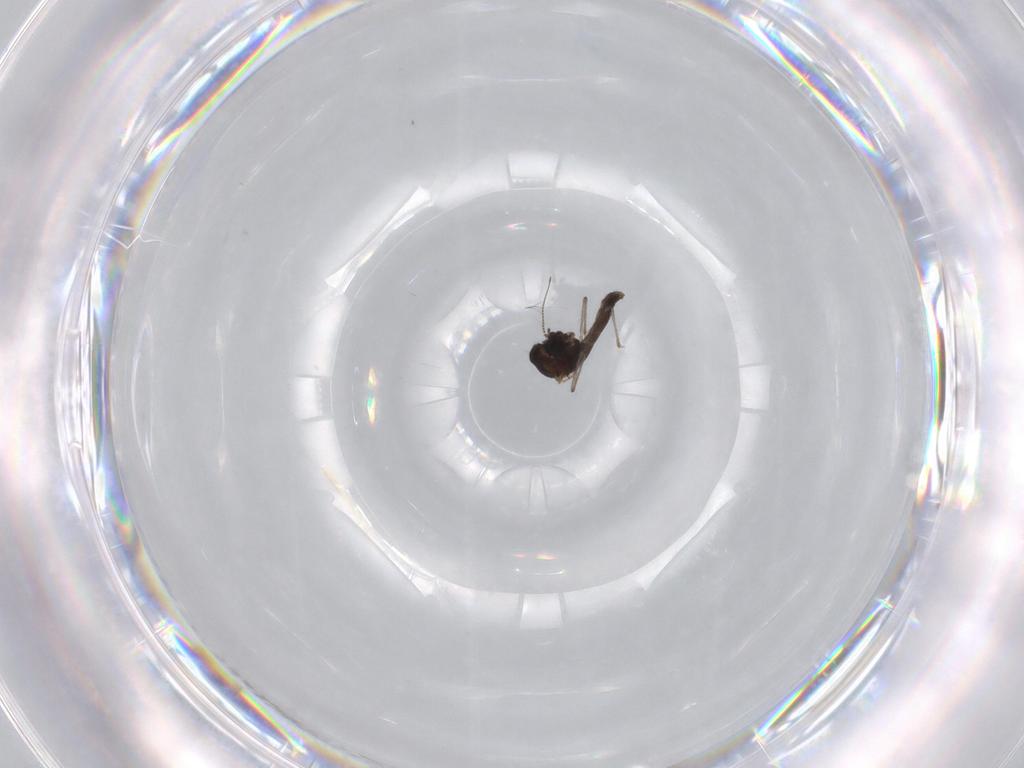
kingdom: Animalia
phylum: Arthropoda
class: Insecta
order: Diptera
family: Chironomidae
